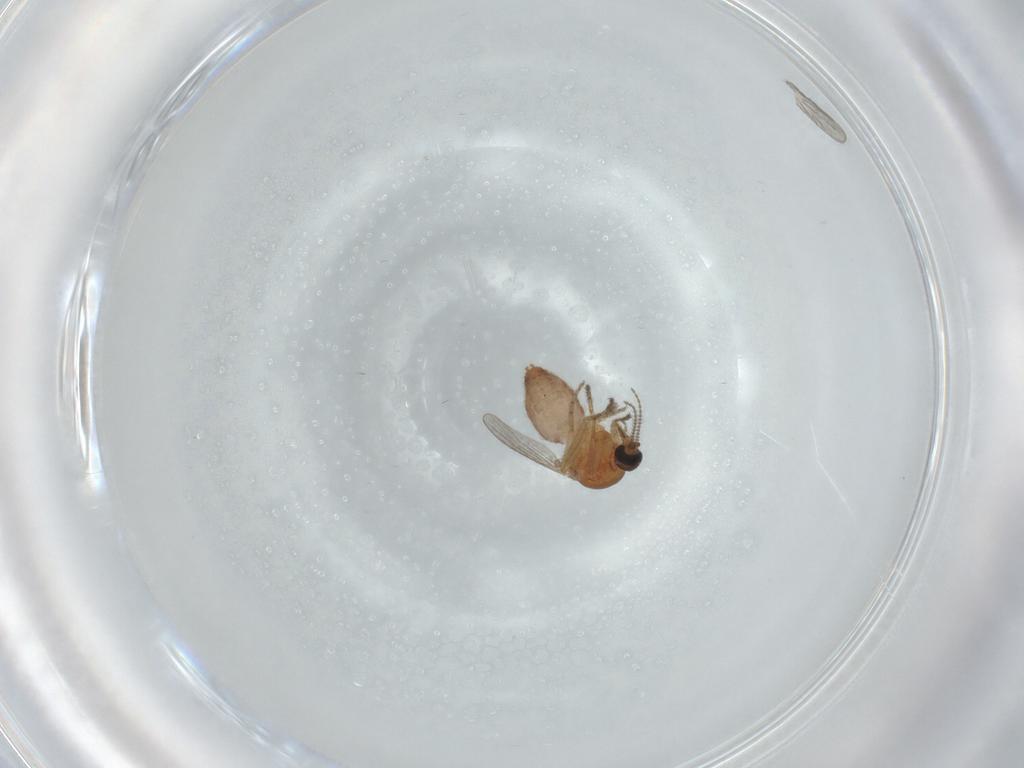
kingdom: Animalia
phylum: Arthropoda
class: Insecta
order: Diptera
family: Ceratopogonidae
